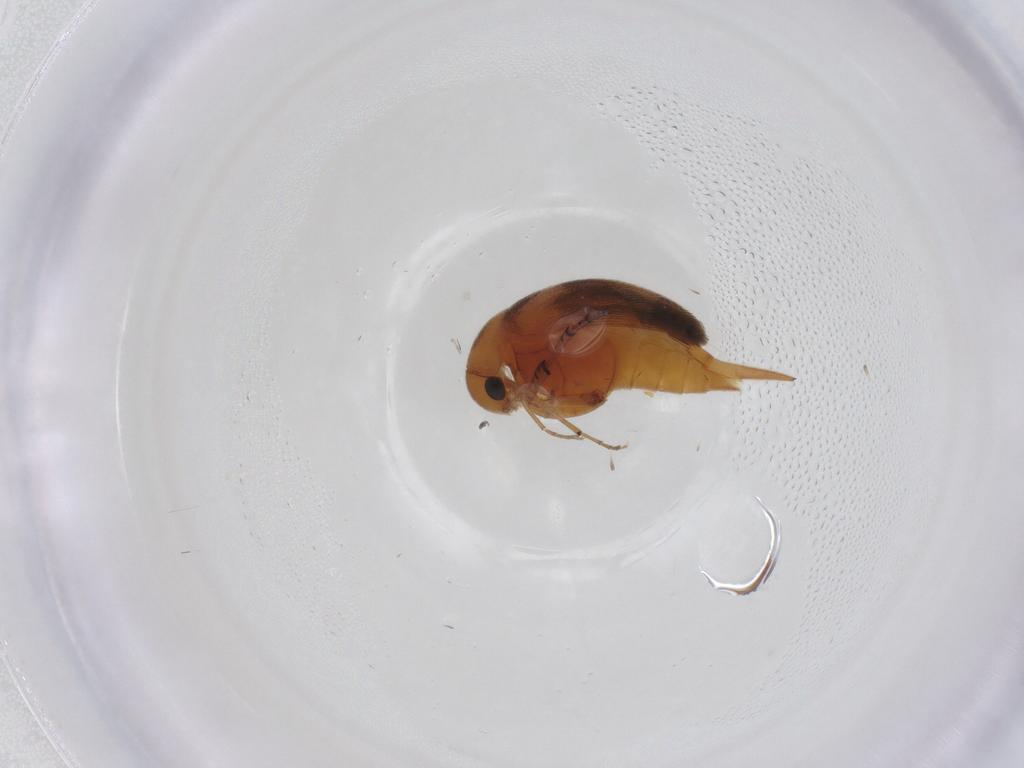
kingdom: Animalia
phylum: Arthropoda
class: Insecta
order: Coleoptera
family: Mordellidae
